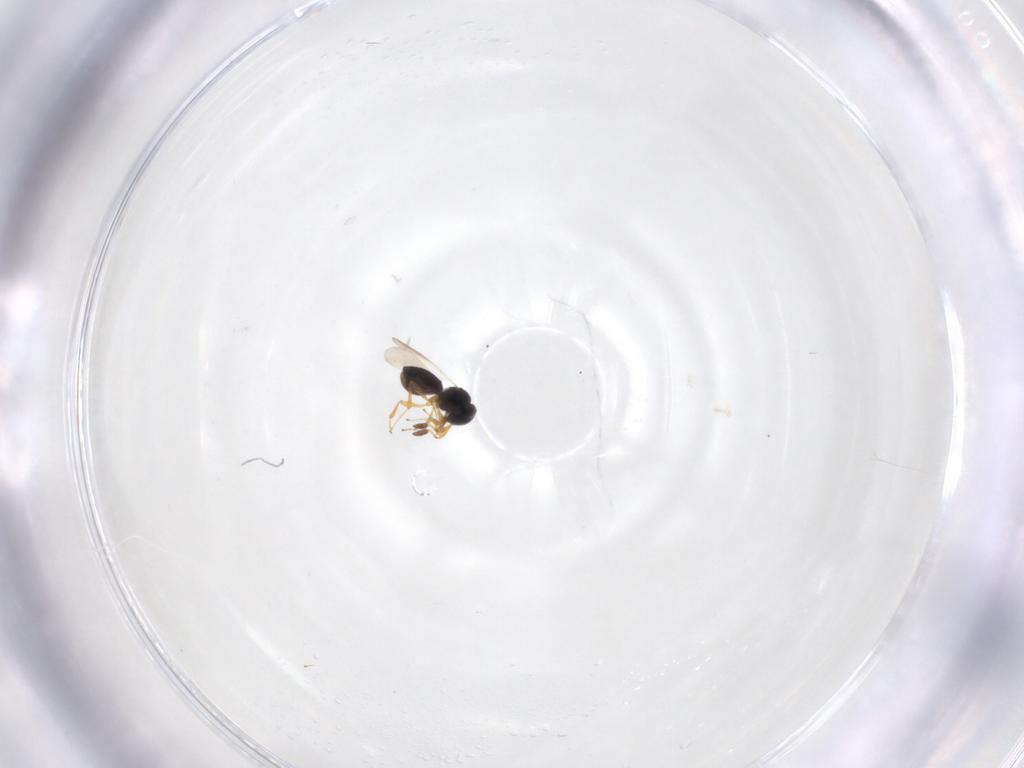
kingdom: Animalia
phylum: Arthropoda
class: Insecta
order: Hymenoptera
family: Platygastridae
